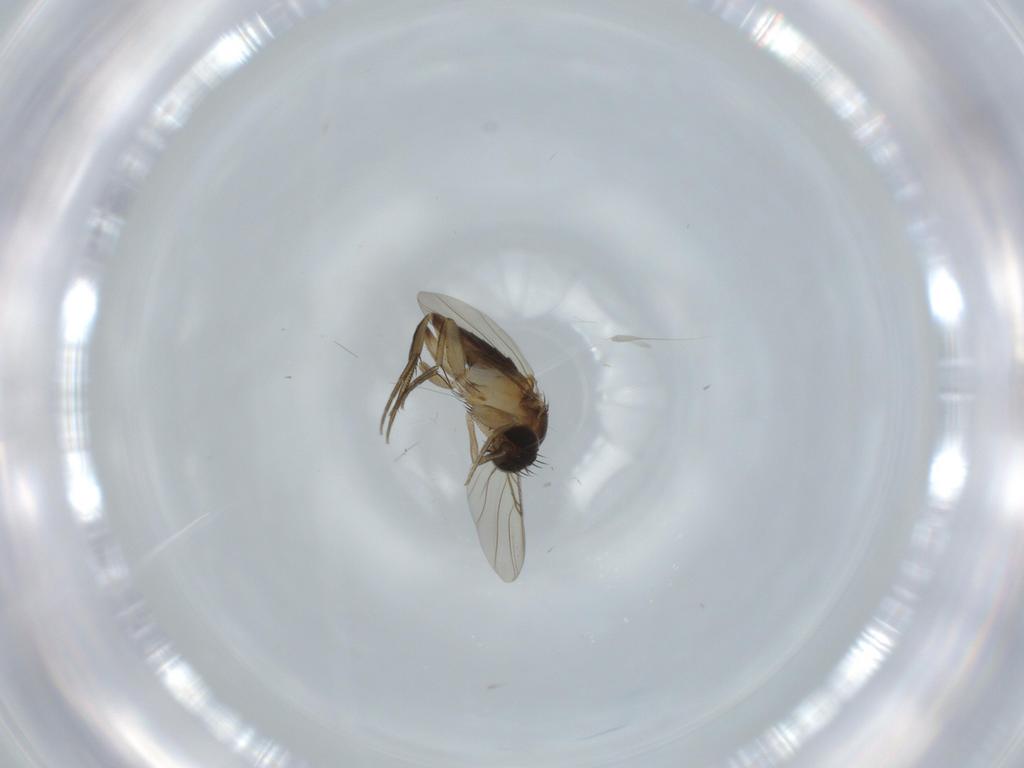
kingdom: Animalia
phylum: Arthropoda
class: Insecta
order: Diptera
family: Phoridae
